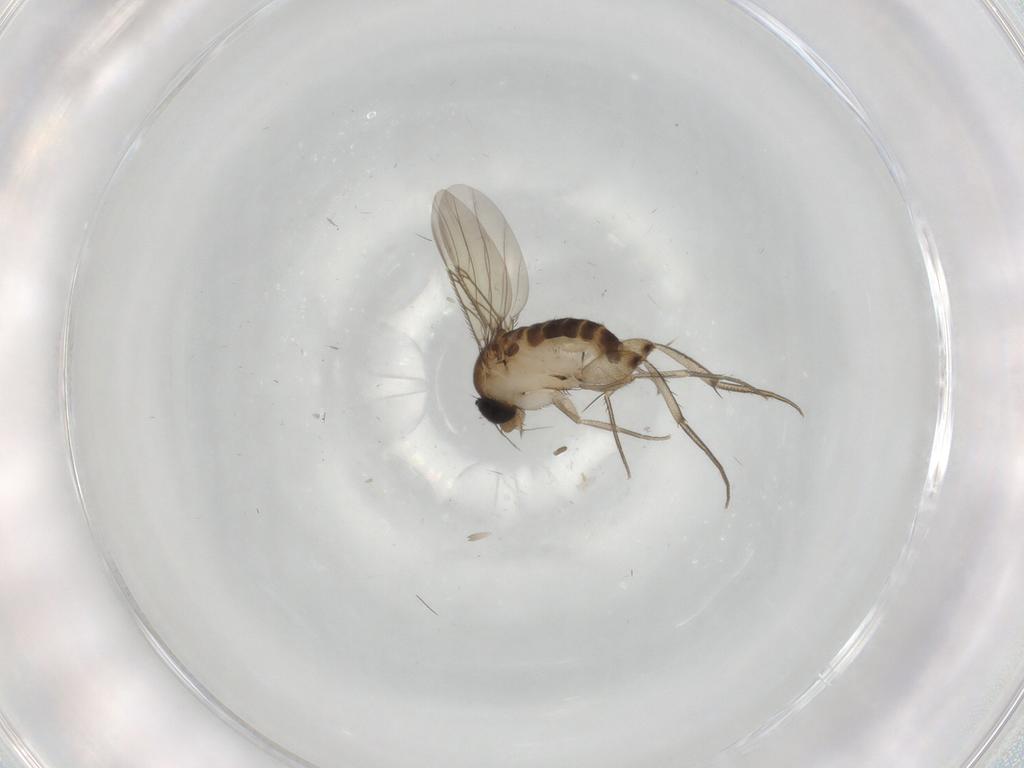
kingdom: Animalia
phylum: Arthropoda
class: Insecta
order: Diptera
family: Phoridae
